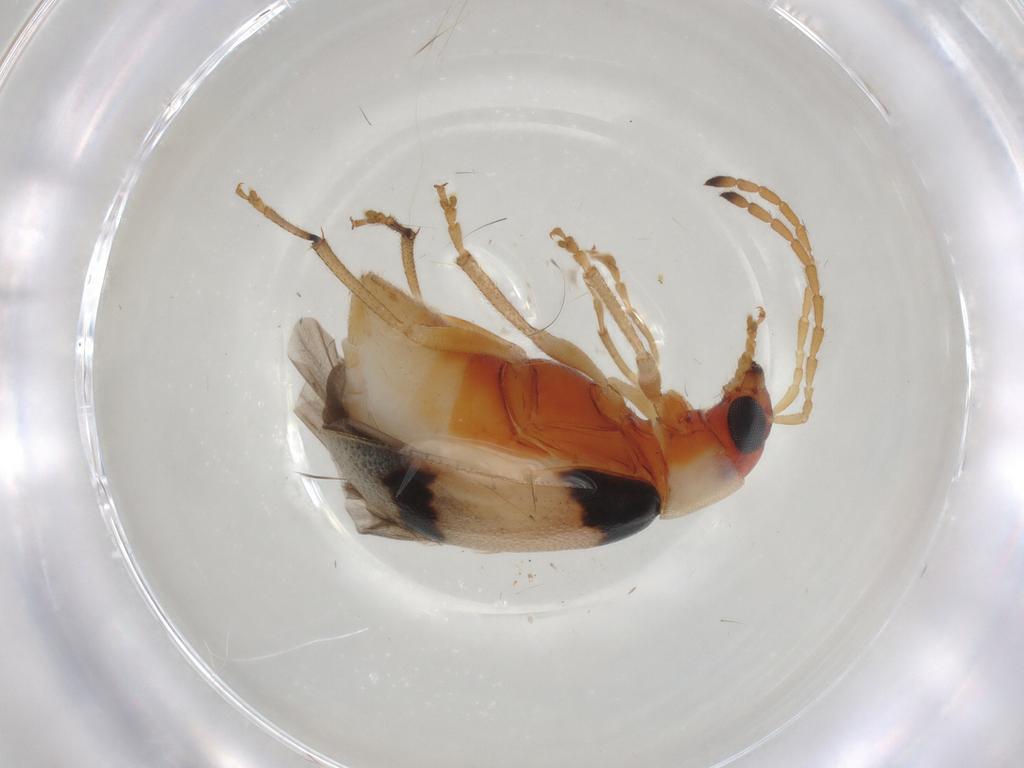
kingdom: Animalia
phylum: Arthropoda
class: Insecta
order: Coleoptera
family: Chrysomelidae
